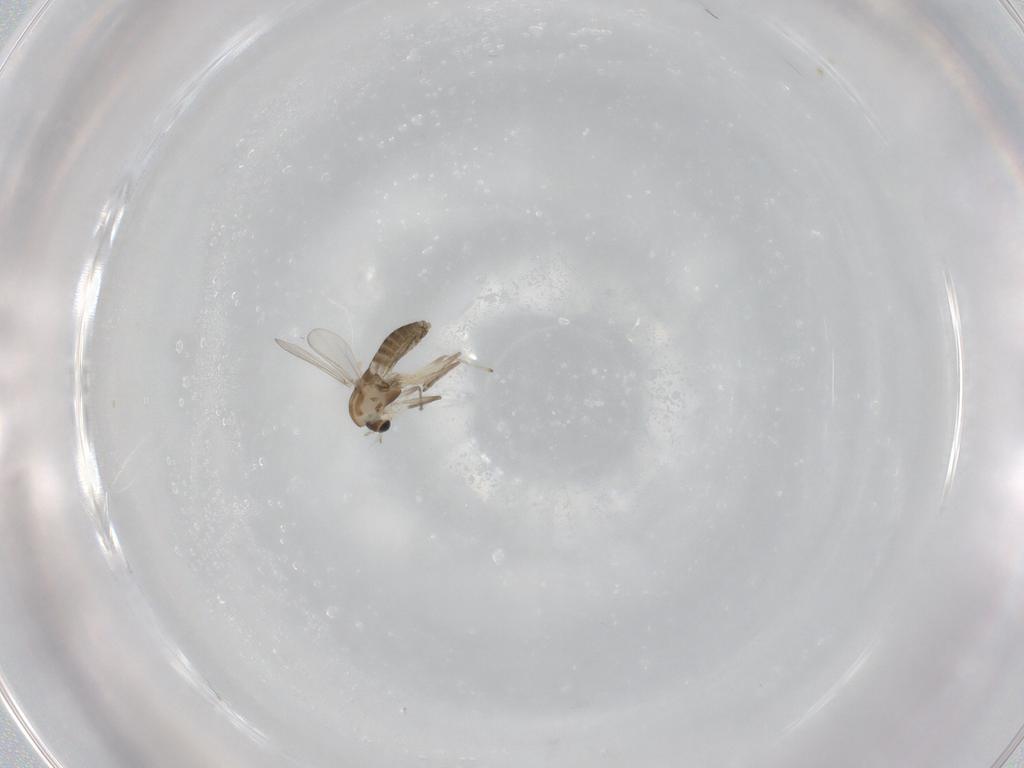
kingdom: Animalia
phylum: Arthropoda
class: Insecta
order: Diptera
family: Chironomidae
